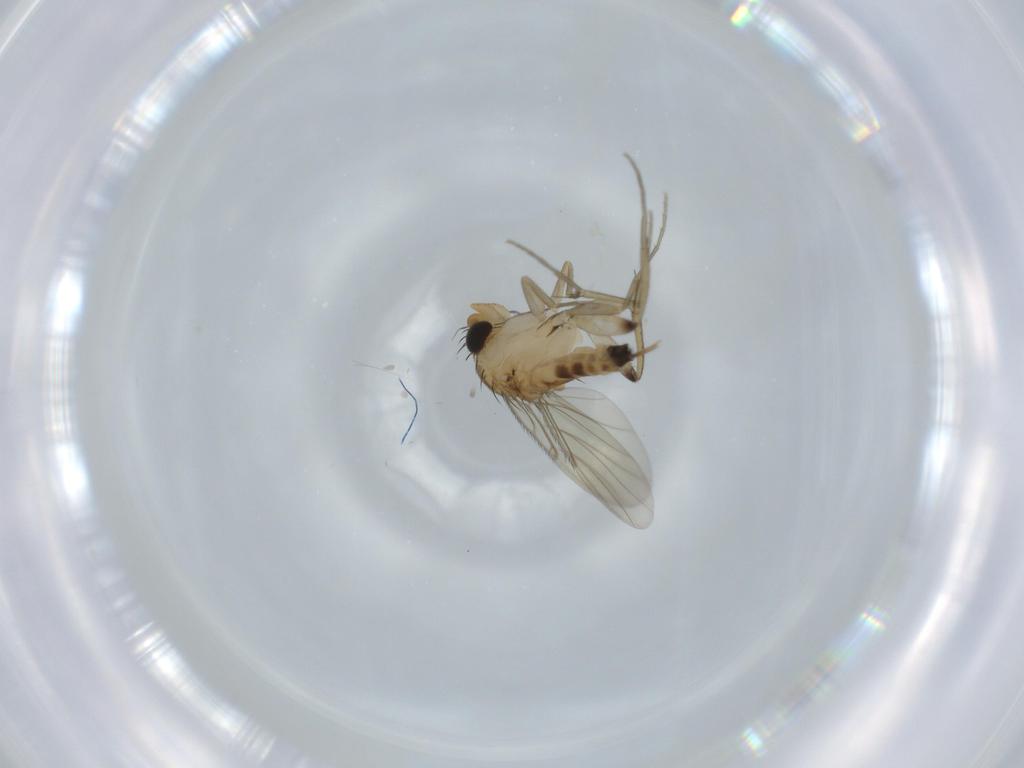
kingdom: Animalia
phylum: Arthropoda
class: Insecta
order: Diptera
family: Phoridae
